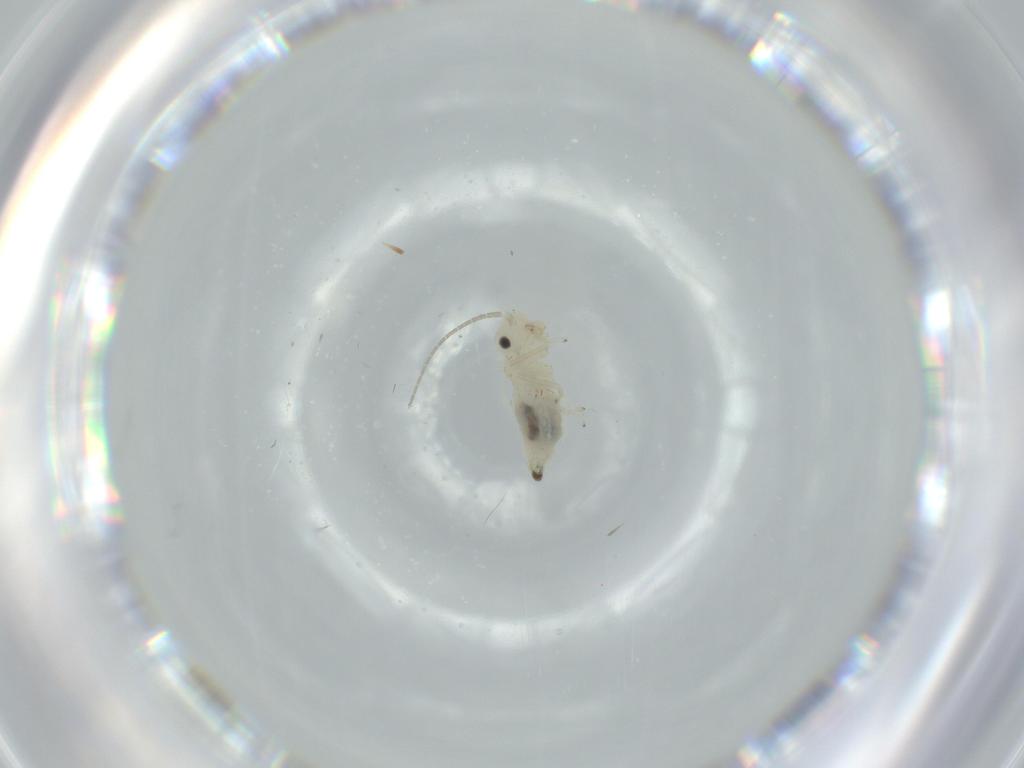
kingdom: Animalia
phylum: Arthropoda
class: Insecta
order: Psocodea
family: Caeciliusidae
